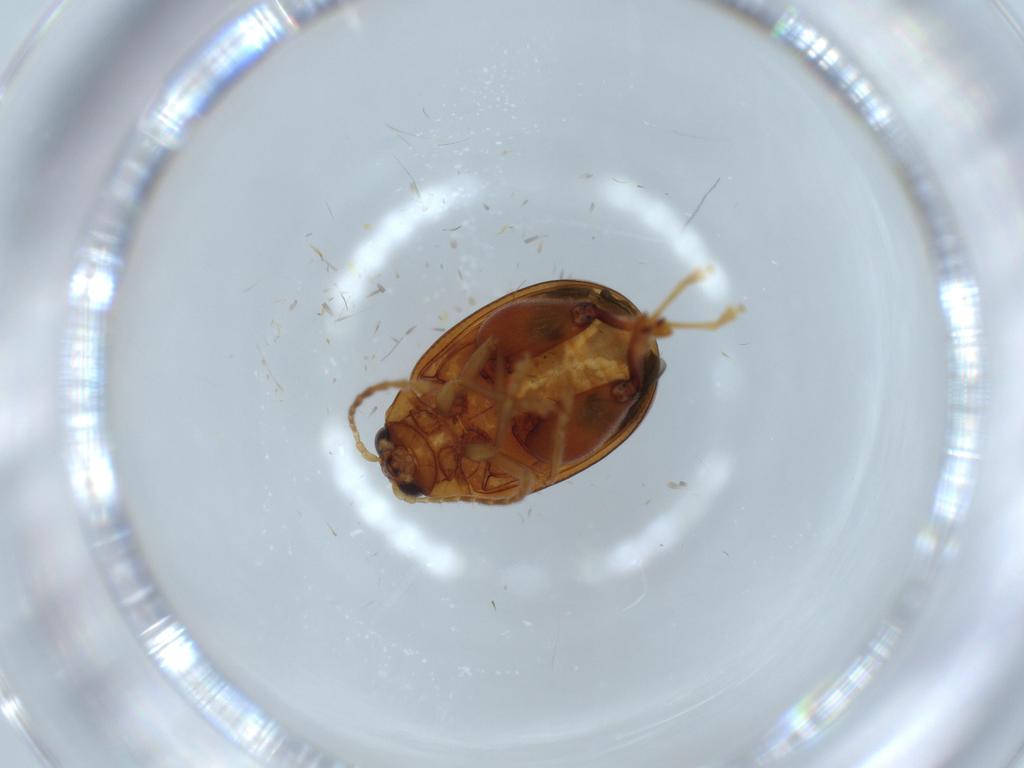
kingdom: Animalia
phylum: Arthropoda
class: Insecta
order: Coleoptera
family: Chrysomelidae
